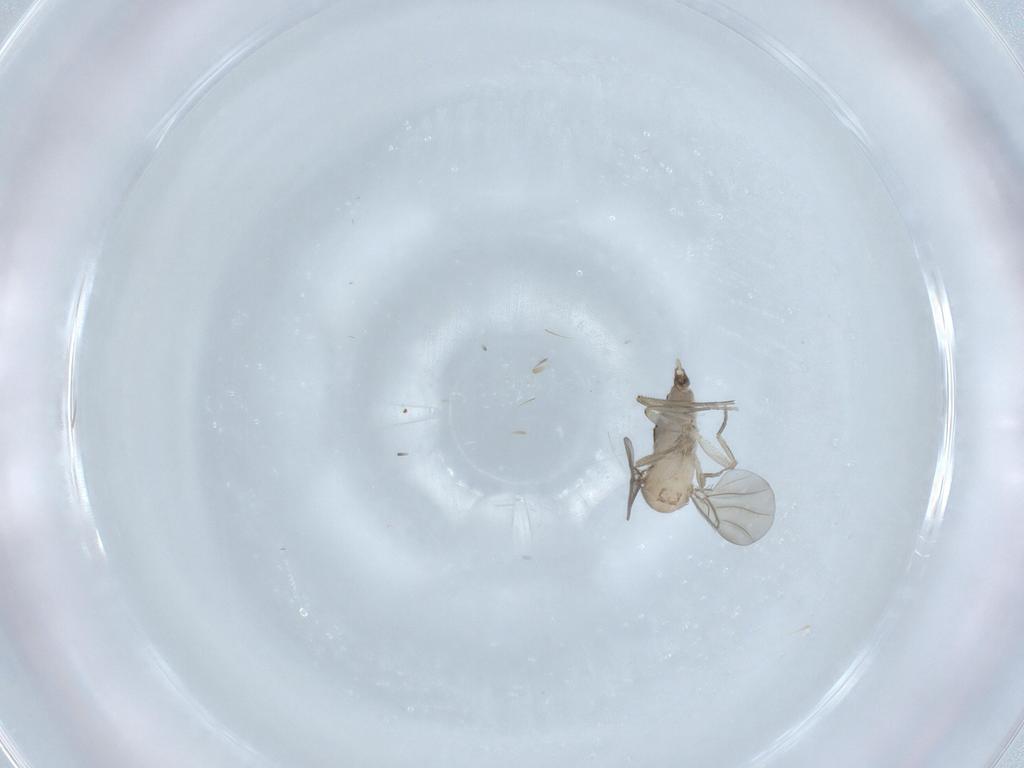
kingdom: Animalia
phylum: Arthropoda
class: Insecta
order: Diptera
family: Phoridae
